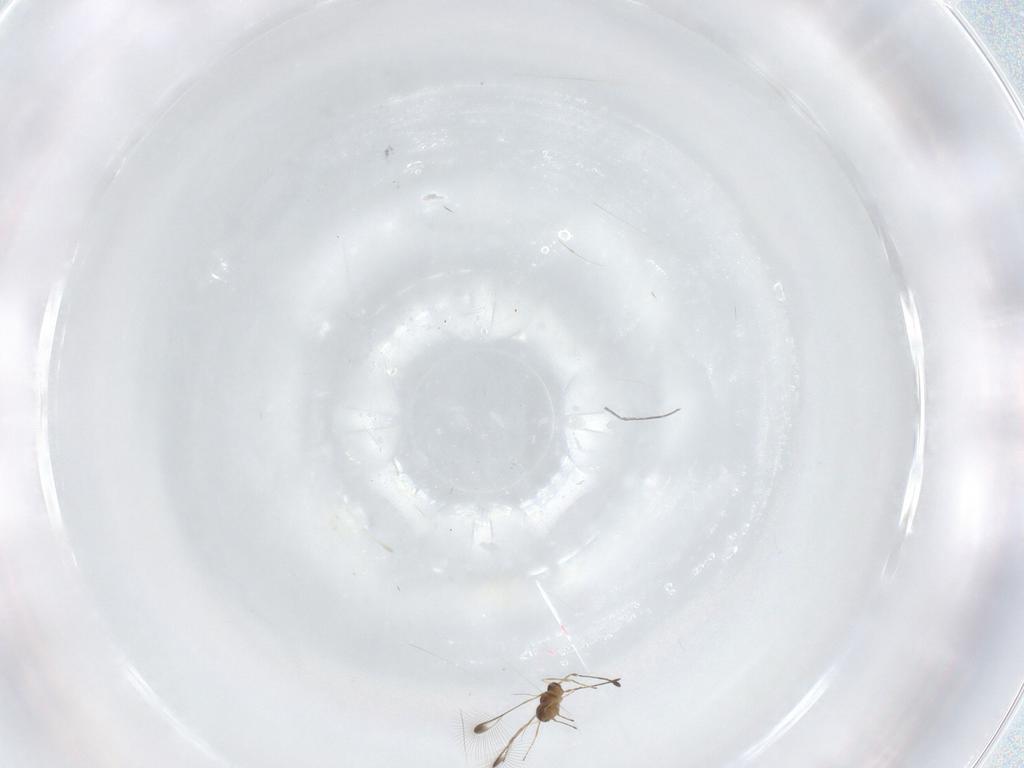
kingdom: Animalia
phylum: Arthropoda
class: Insecta
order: Hymenoptera
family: Mymaridae
